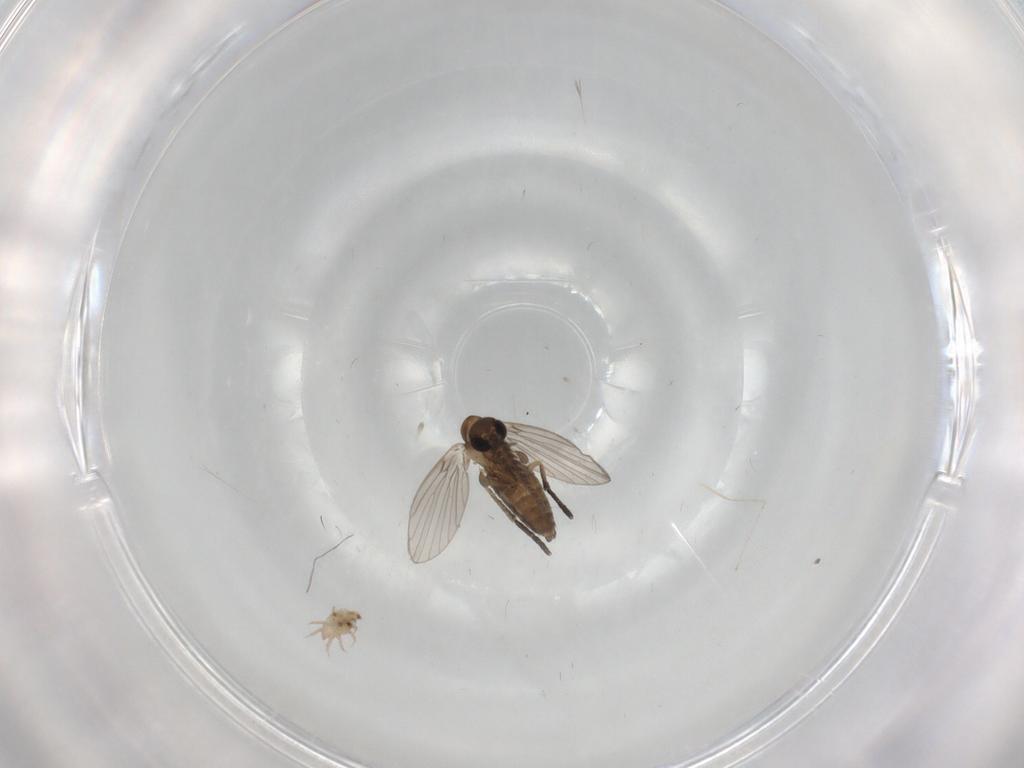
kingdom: Animalia
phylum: Arthropoda
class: Insecta
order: Diptera
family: Sciaridae
